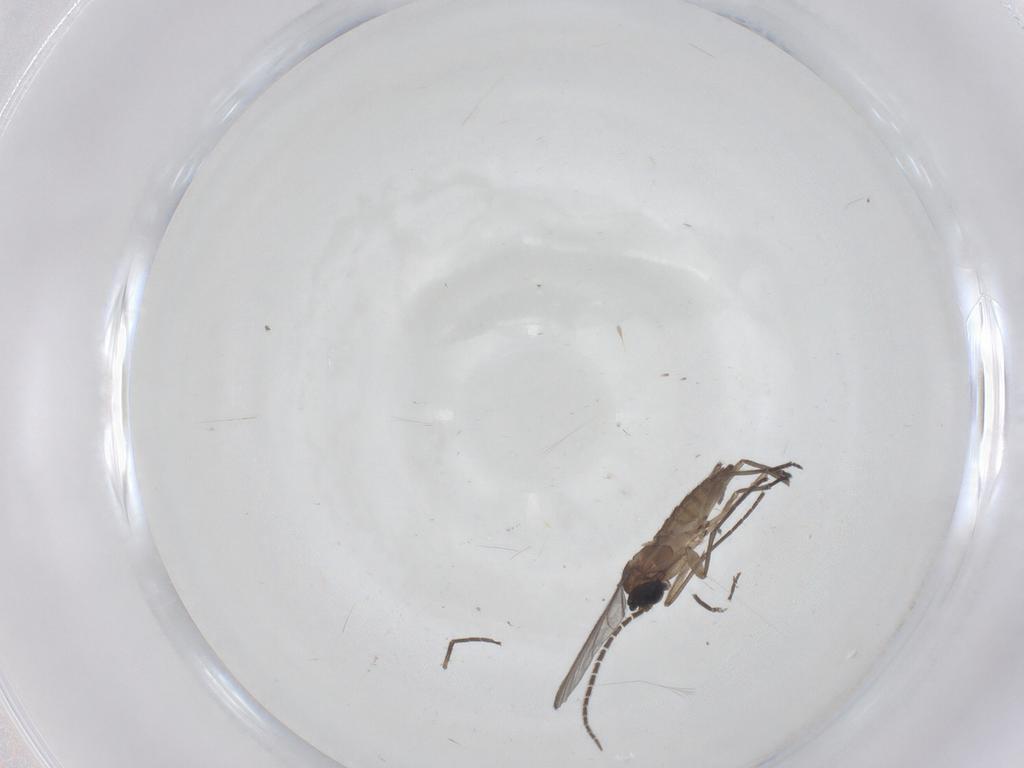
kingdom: Animalia
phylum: Arthropoda
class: Insecta
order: Diptera
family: Sciaridae
